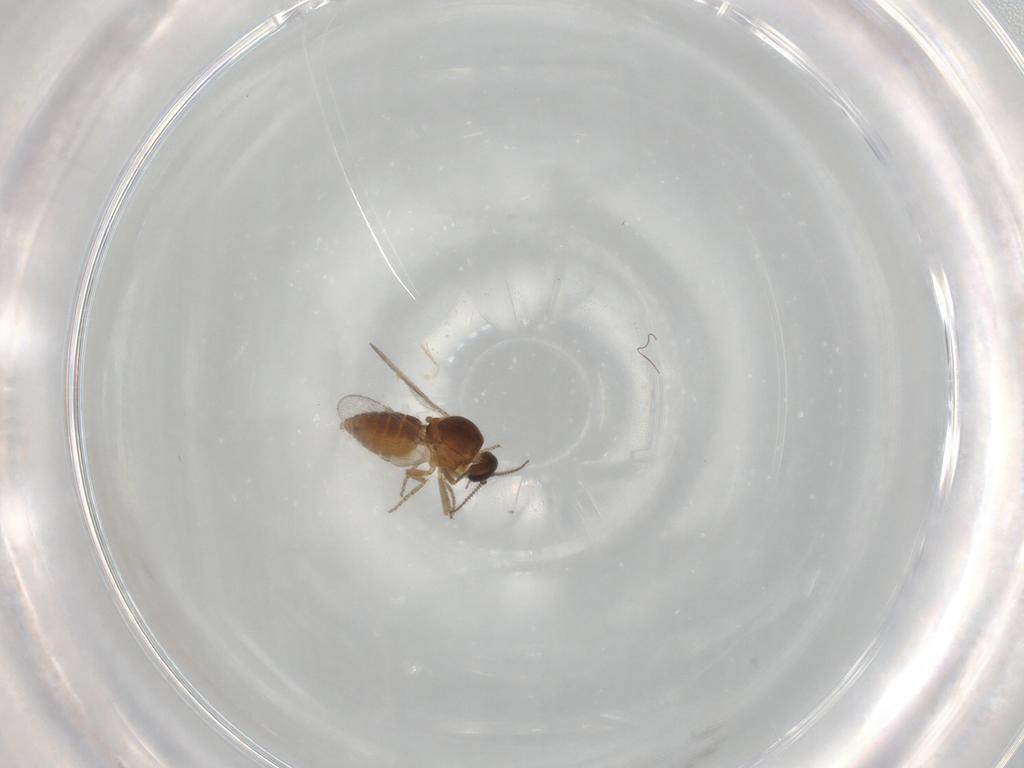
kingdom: Animalia
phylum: Arthropoda
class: Insecta
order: Diptera
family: Ceratopogonidae
